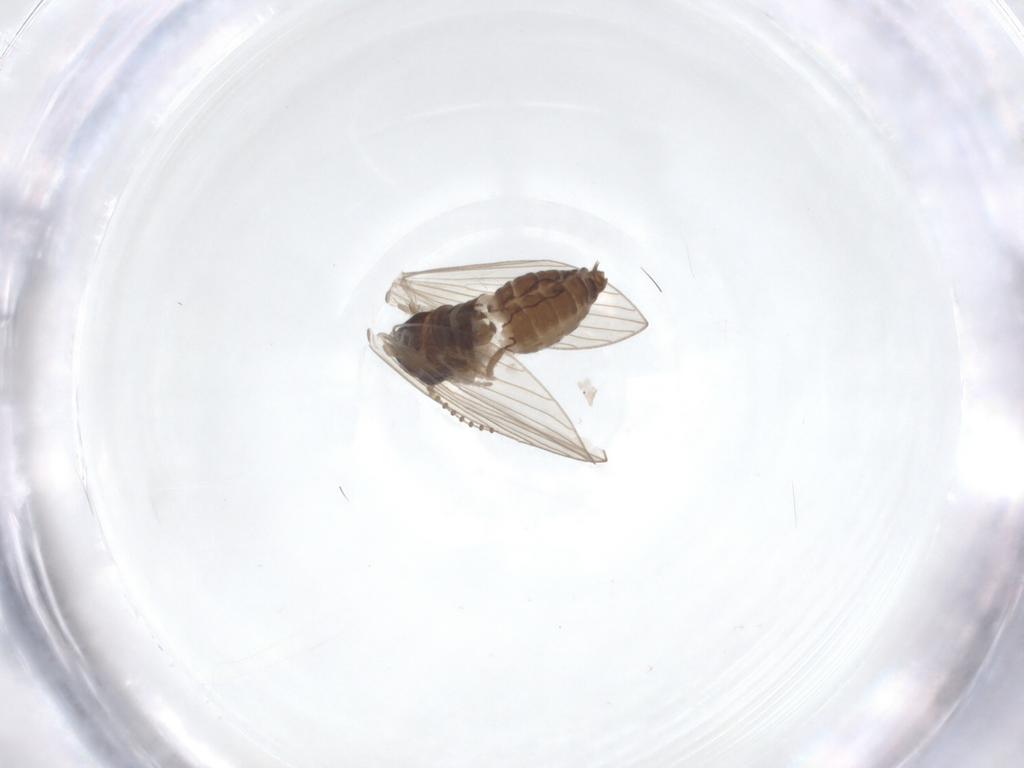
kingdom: Animalia
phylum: Arthropoda
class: Insecta
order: Diptera
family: Psychodidae
